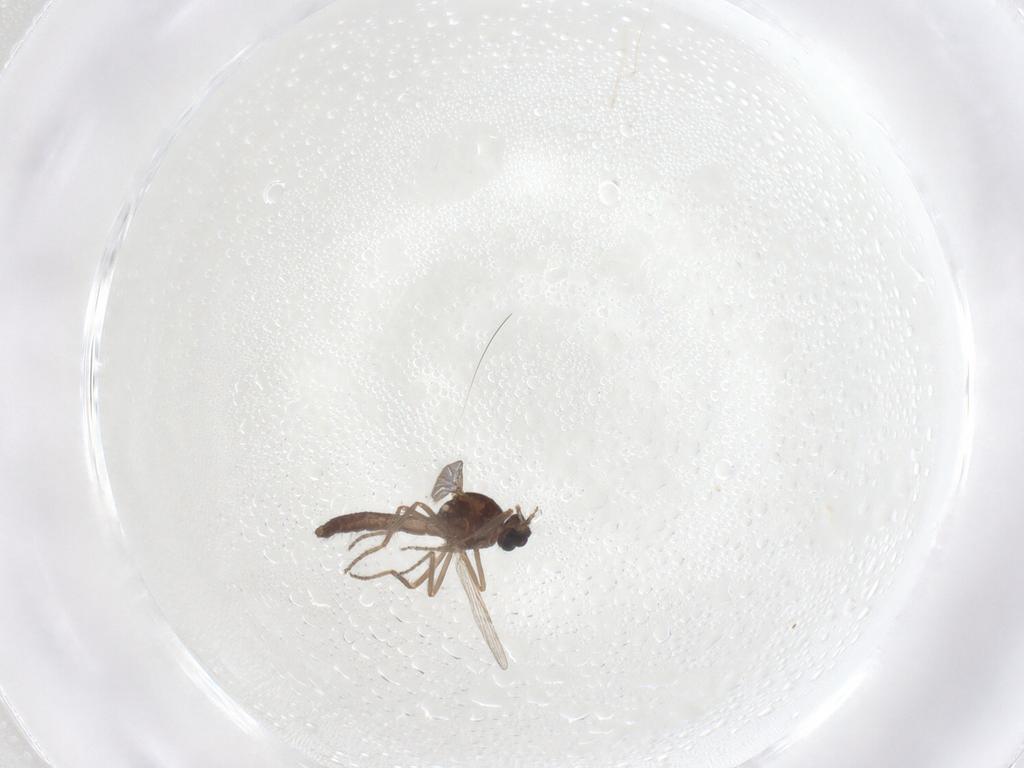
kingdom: Animalia
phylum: Arthropoda
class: Insecta
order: Diptera
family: Ceratopogonidae
